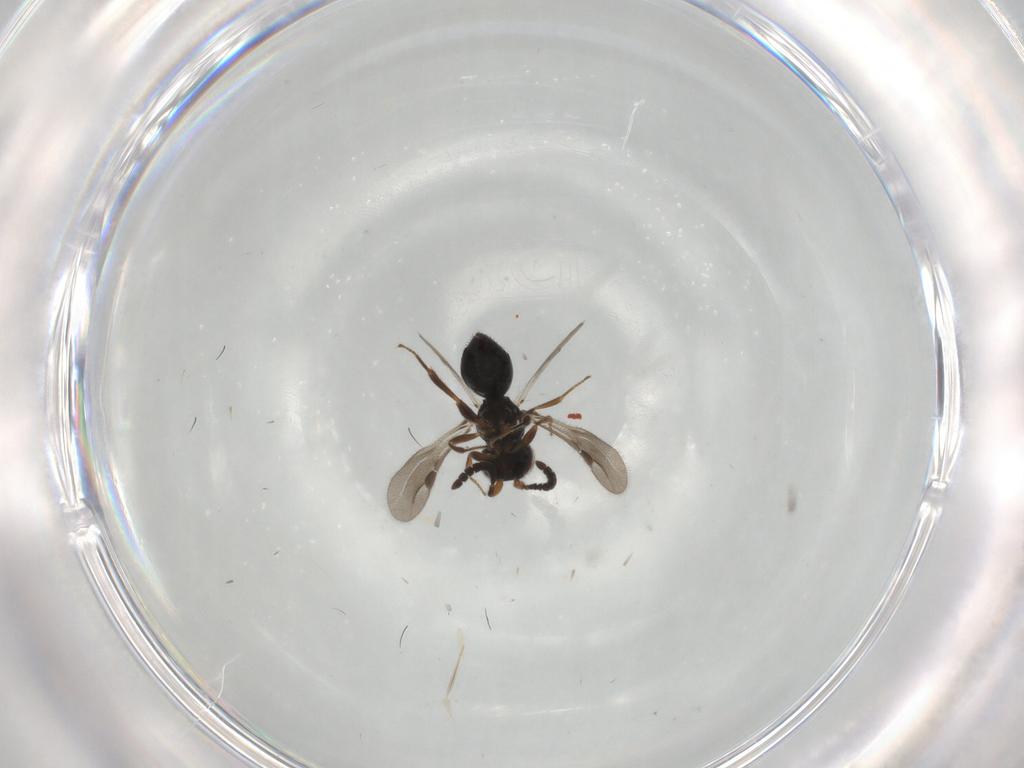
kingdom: Animalia
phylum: Arthropoda
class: Insecta
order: Hymenoptera
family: Megaspilidae
